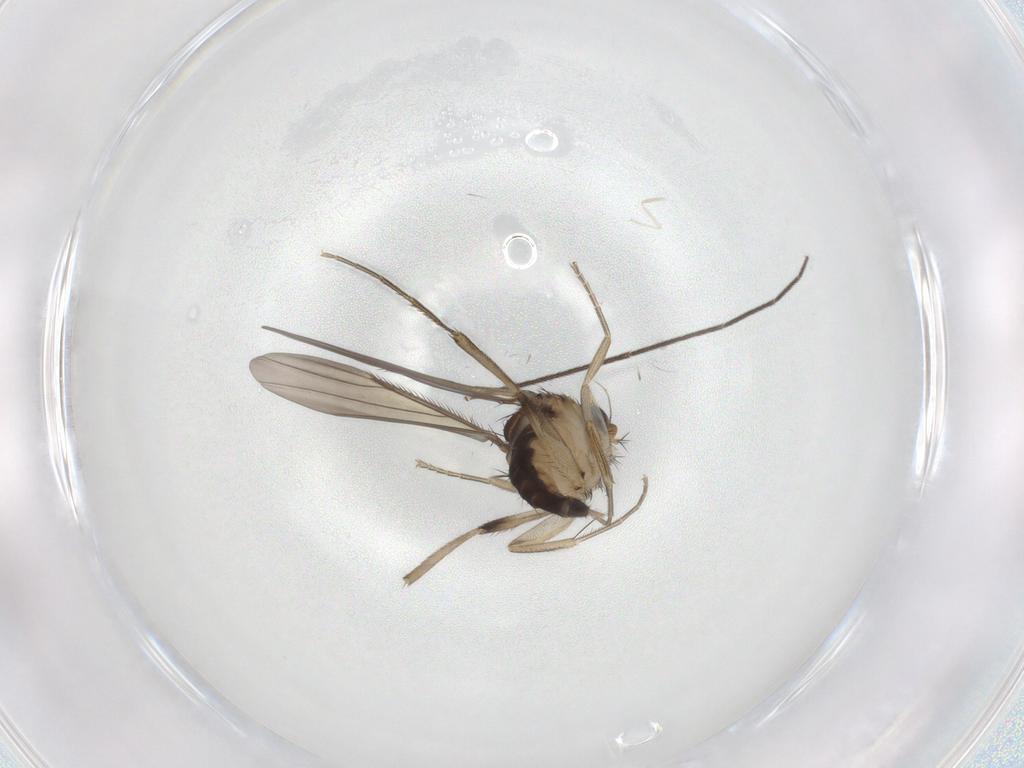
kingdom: Animalia
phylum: Arthropoda
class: Insecta
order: Diptera
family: Phoridae
